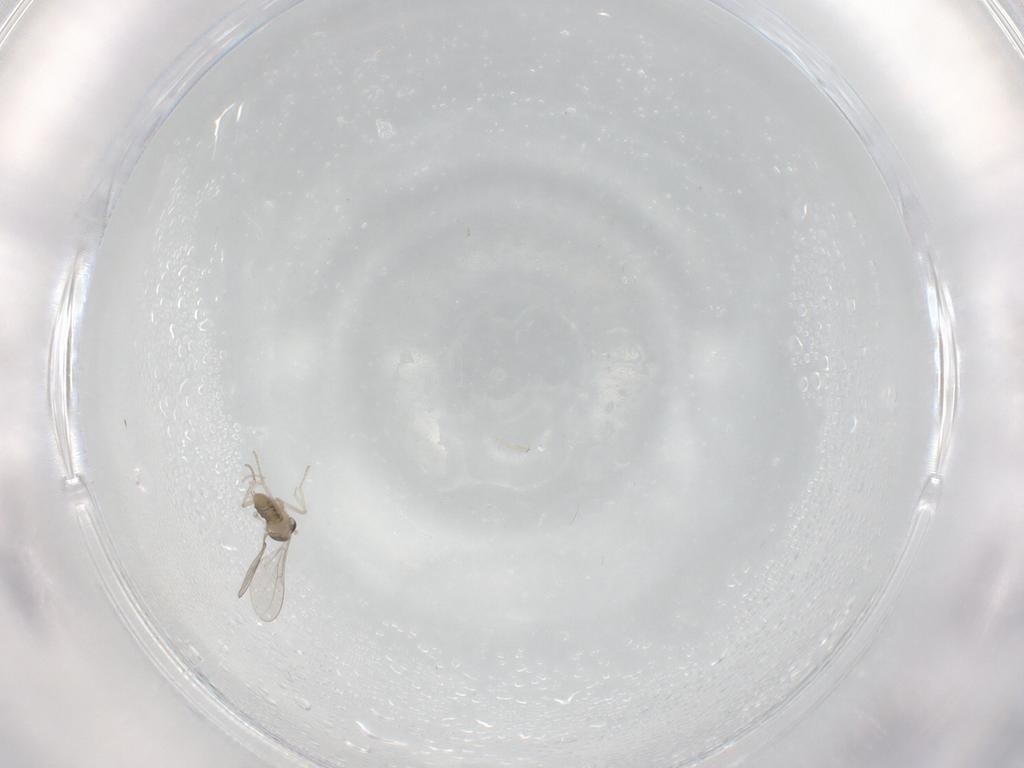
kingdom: Animalia
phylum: Arthropoda
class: Insecta
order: Diptera
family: Cecidomyiidae
